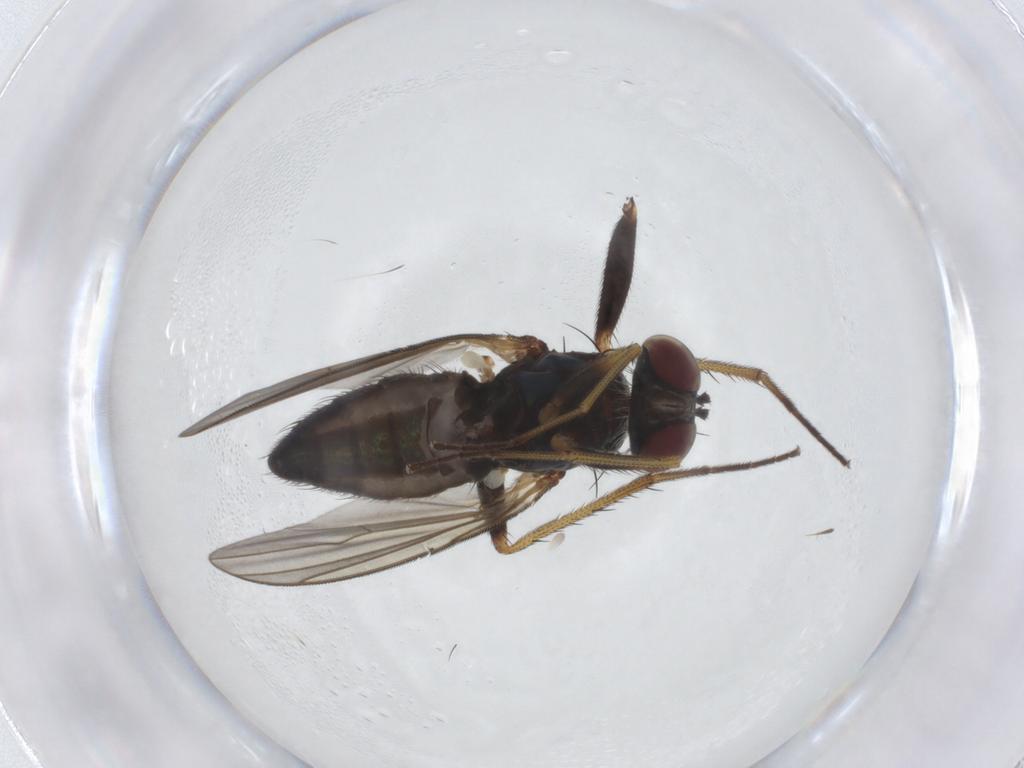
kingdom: Animalia
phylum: Arthropoda
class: Insecta
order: Diptera
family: Dolichopodidae
